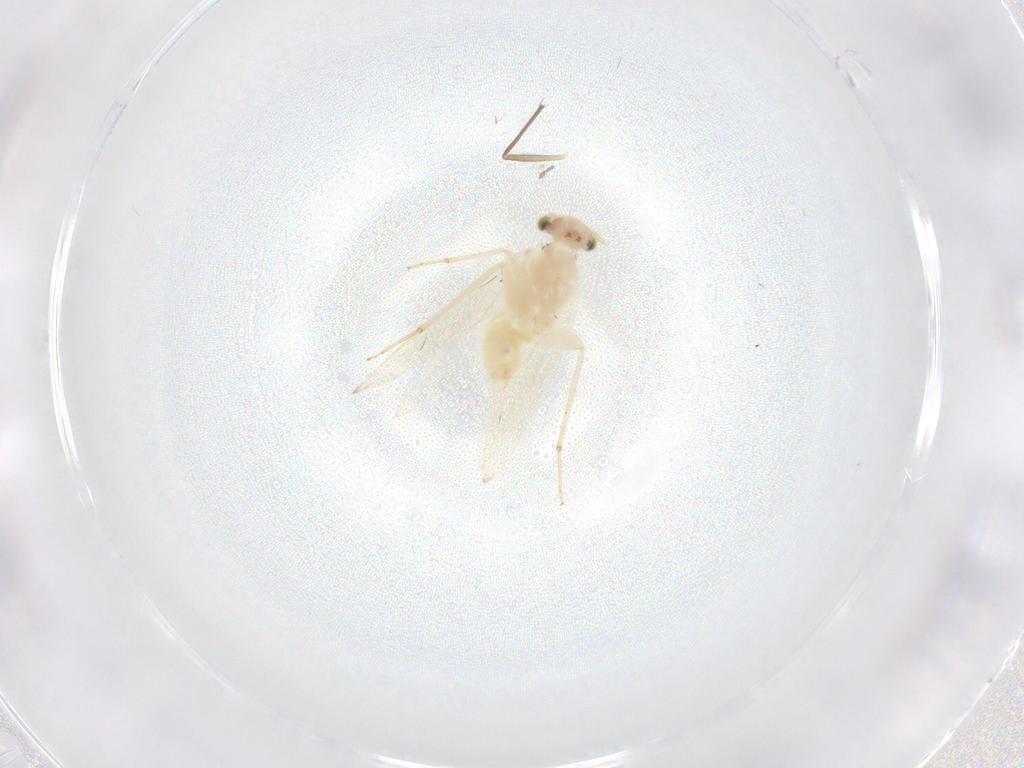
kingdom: Animalia
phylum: Arthropoda
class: Insecta
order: Psocodea
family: Lepidopsocidae
